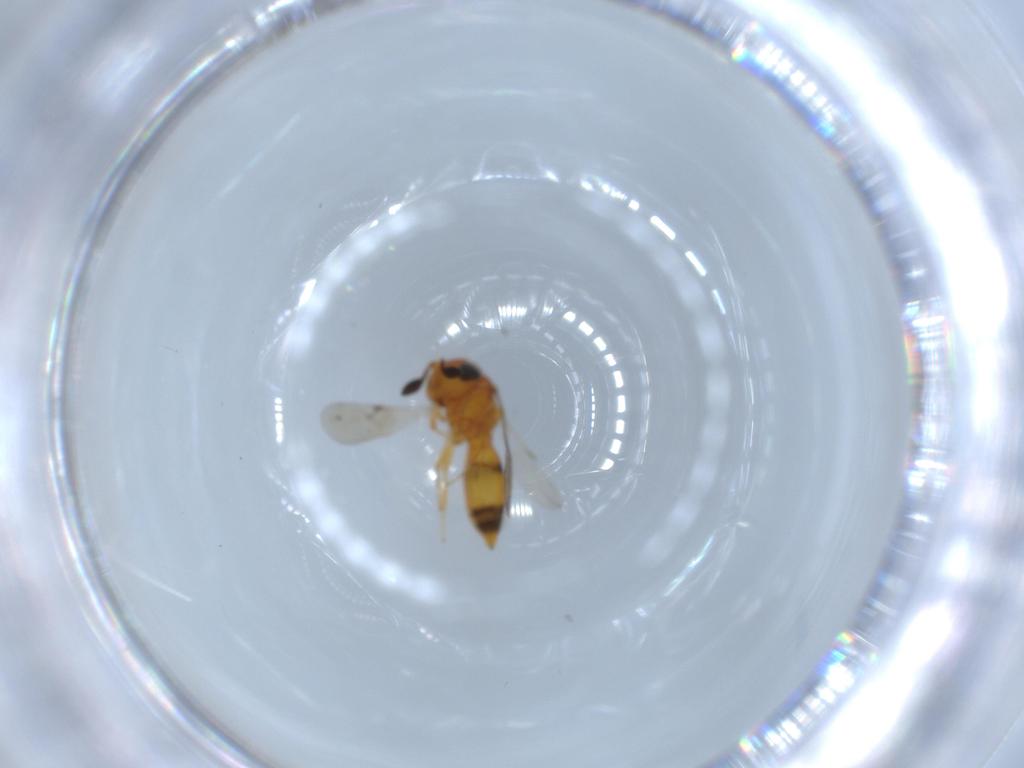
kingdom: Animalia
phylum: Arthropoda
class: Insecta
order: Hymenoptera
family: Scelionidae
